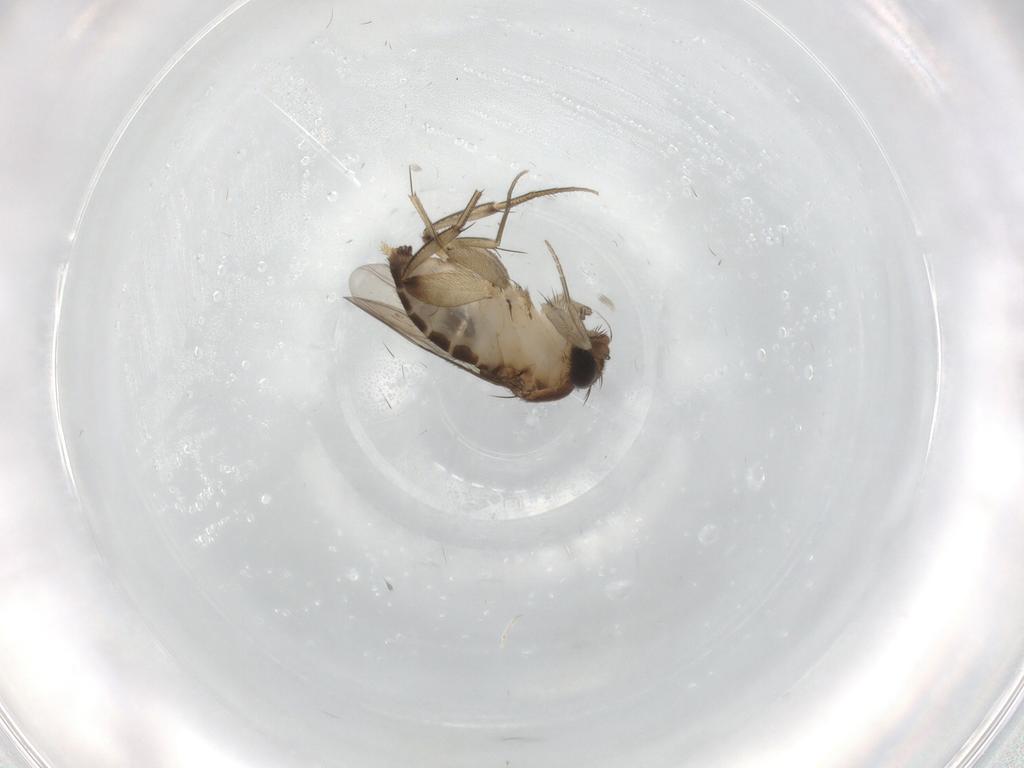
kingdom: Animalia
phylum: Arthropoda
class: Insecta
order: Diptera
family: Phoridae
